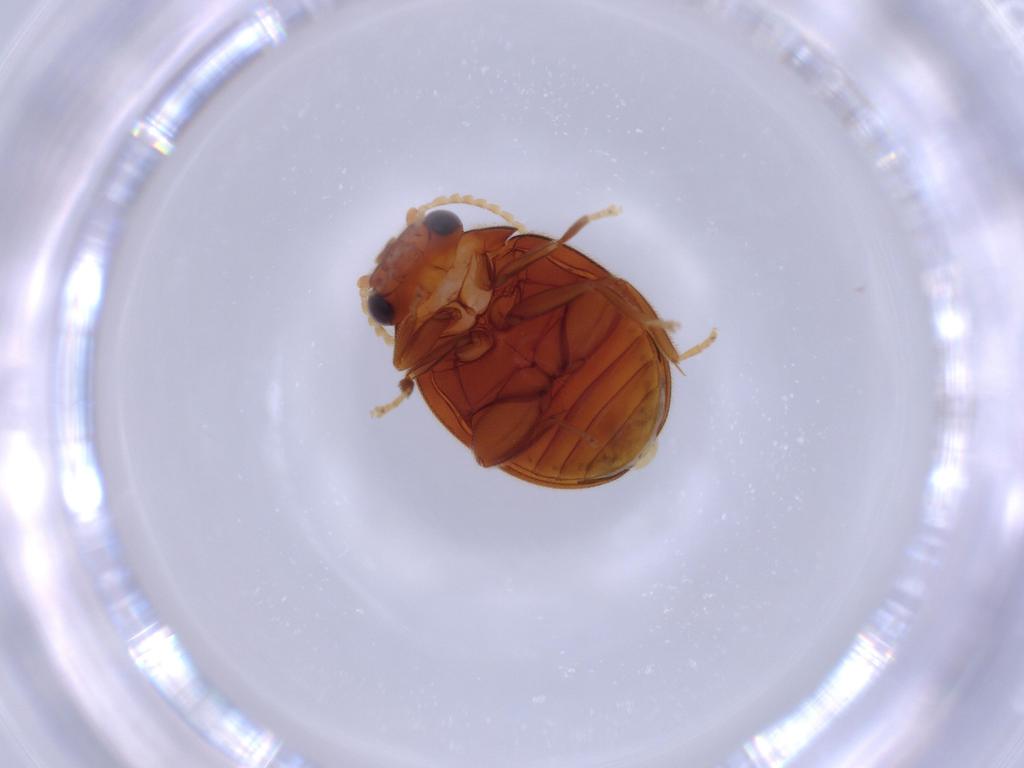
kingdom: Animalia
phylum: Arthropoda
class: Insecta
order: Coleoptera
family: Scirtidae
